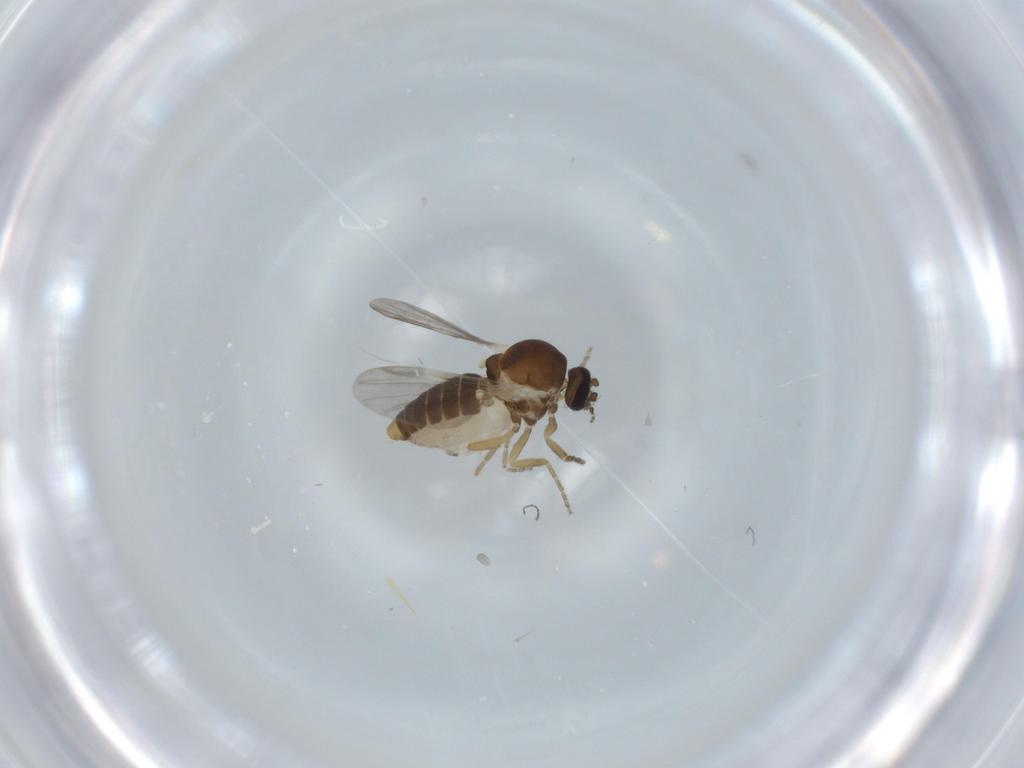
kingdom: Animalia
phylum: Arthropoda
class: Insecta
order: Diptera
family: Ceratopogonidae
